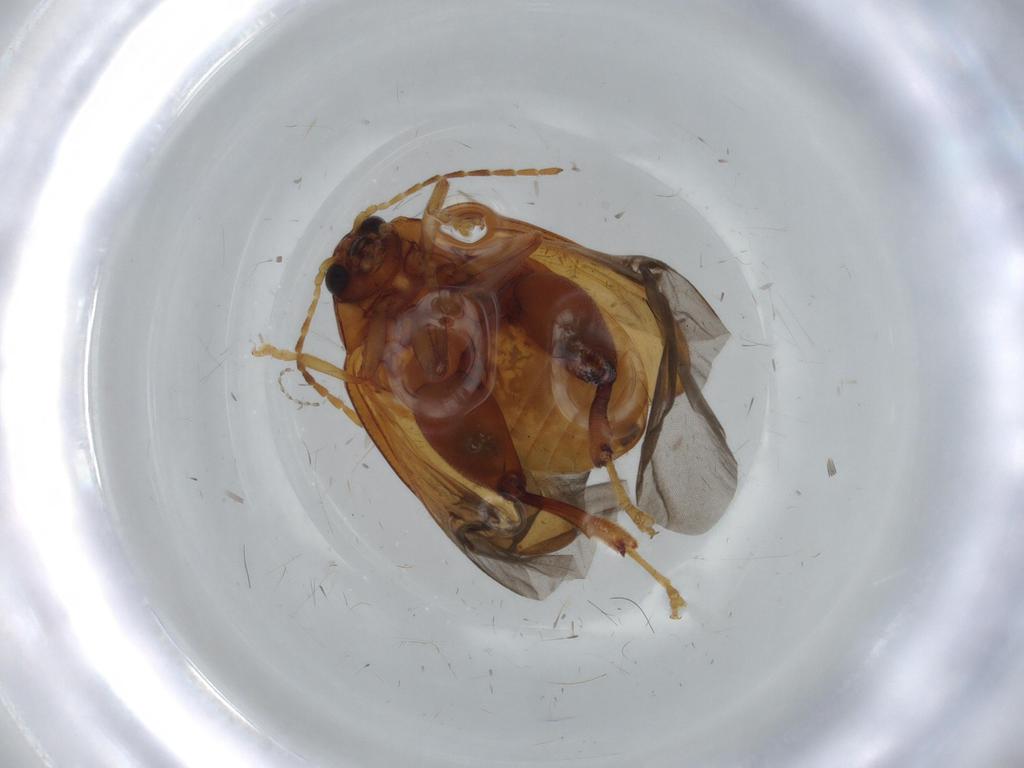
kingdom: Animalia
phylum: Arthropoda
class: Insecta
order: Coleoptera
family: Chrysomelidae
